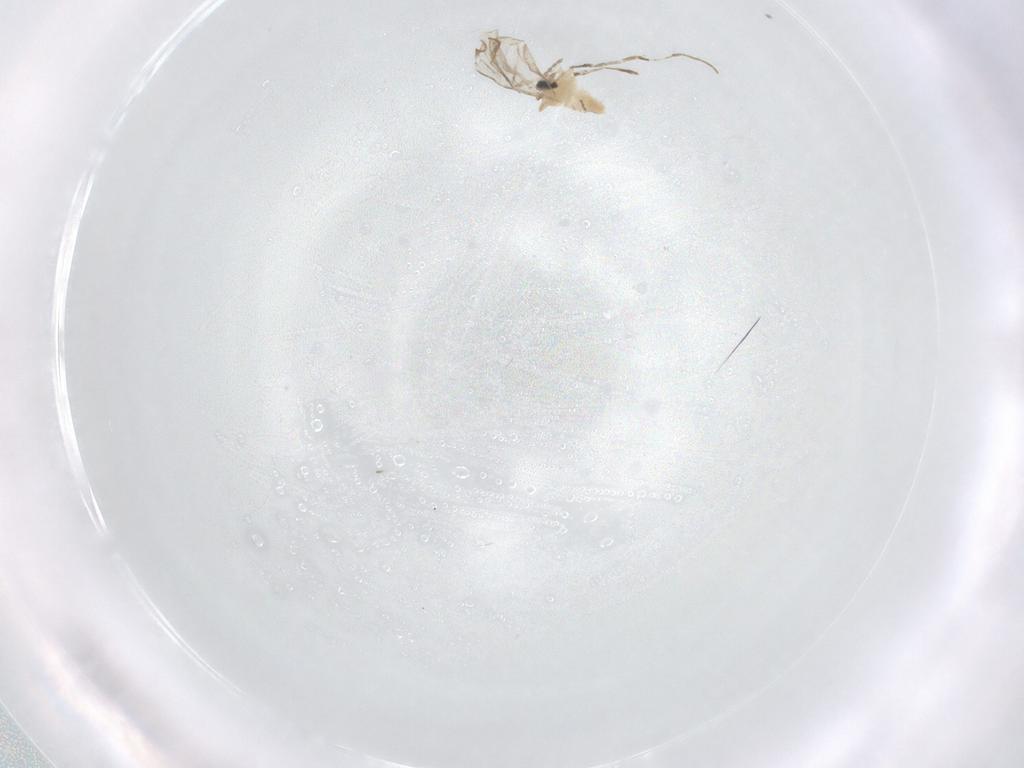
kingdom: Animalia
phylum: Arthropoda
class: Insecta
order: Diptera
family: Chironomidae
